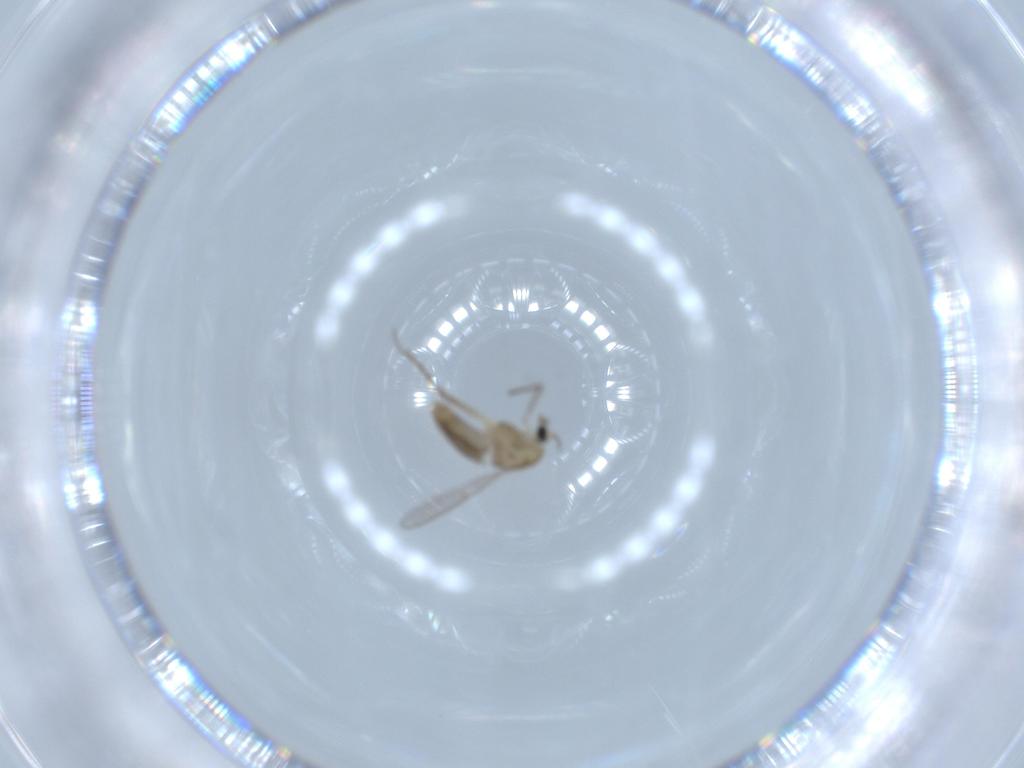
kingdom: Animalia
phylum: Arthropoda
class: Insecta
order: Diptera
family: Chironomidae
